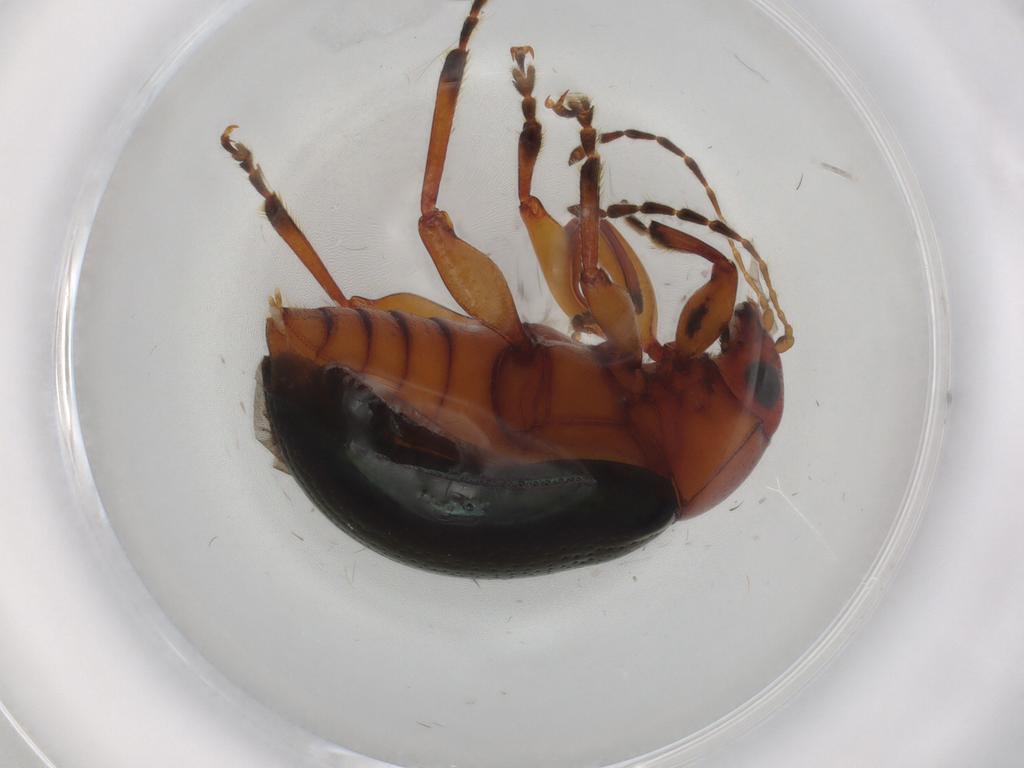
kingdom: Animalia
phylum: Arthropoda
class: Insecta
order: Coleoptera
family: Chrysomelidae
